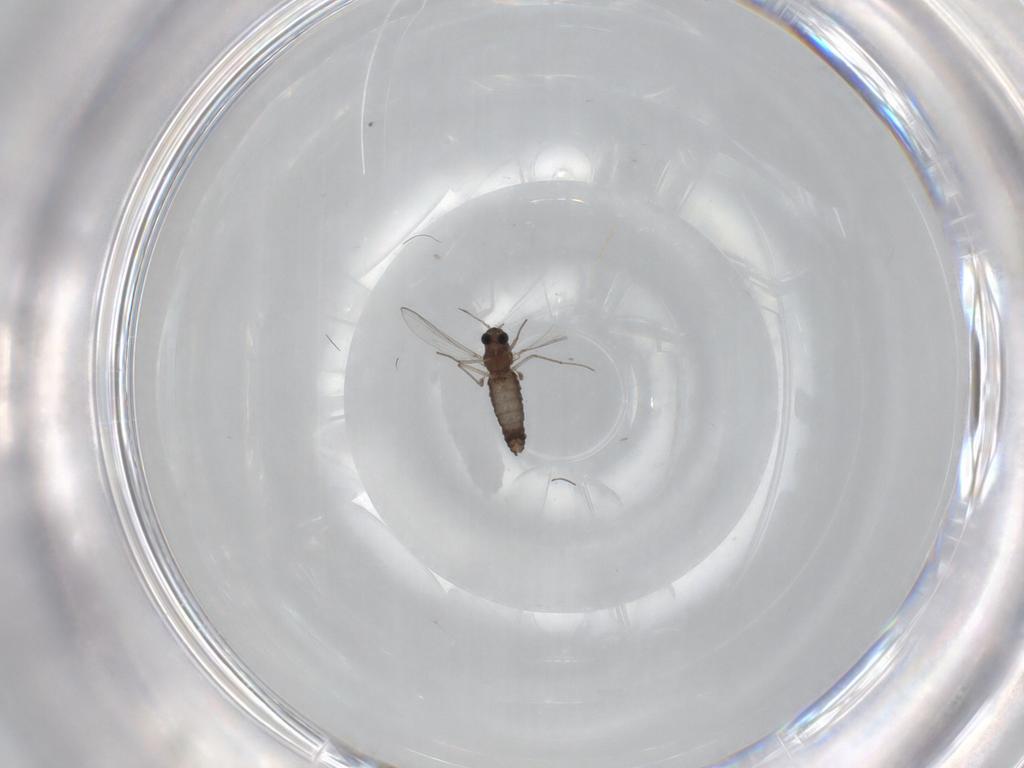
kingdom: Animalia
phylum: Arthropoda
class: Insecta
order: Diptera
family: Chironomidae
